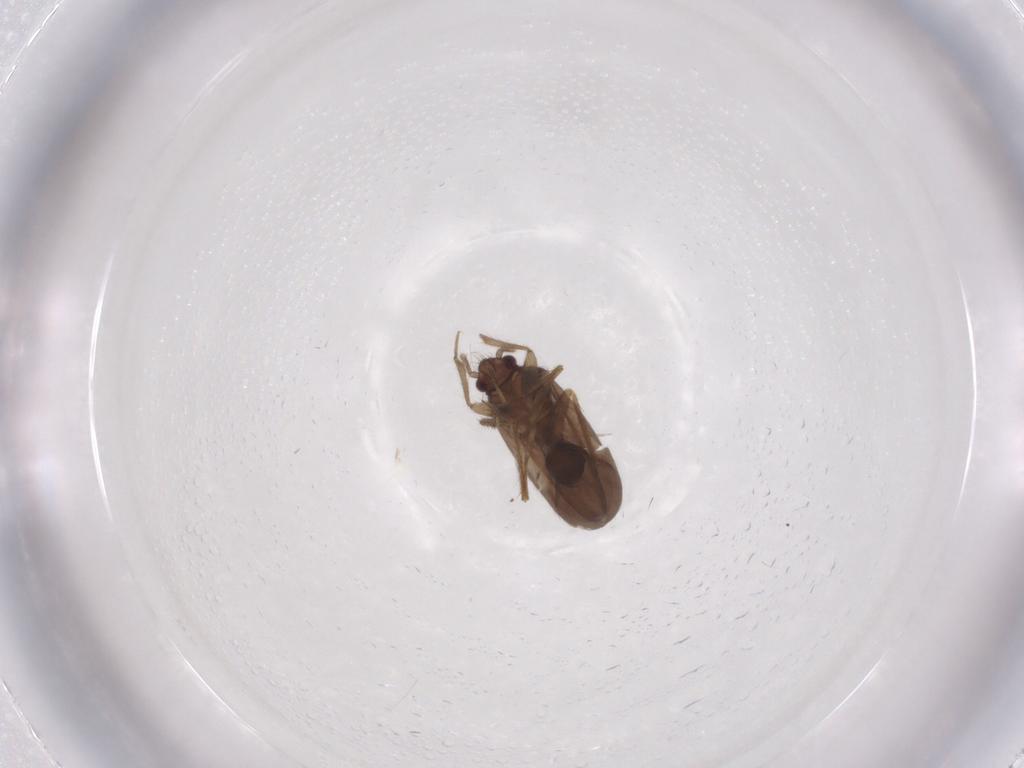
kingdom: Animalia
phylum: Arthropoda
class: Insecta
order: Hemiptera
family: Ceratocombidae
